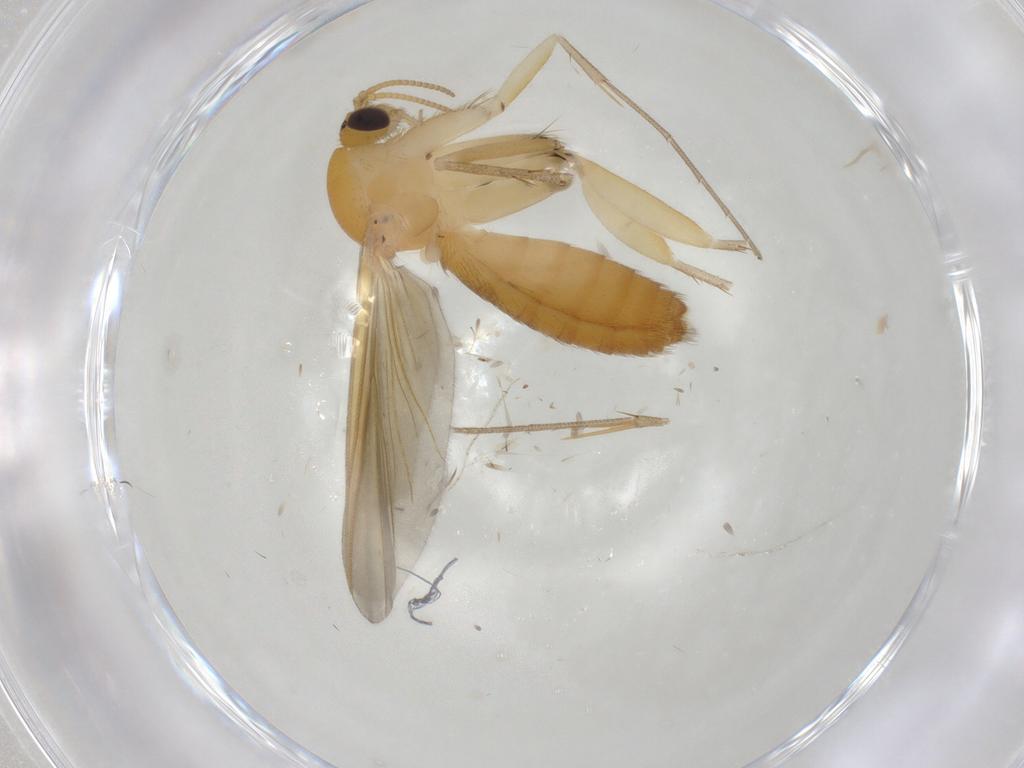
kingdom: Animalia
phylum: Arthropoda
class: Insecta
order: Diptera
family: Mycetophilidae
